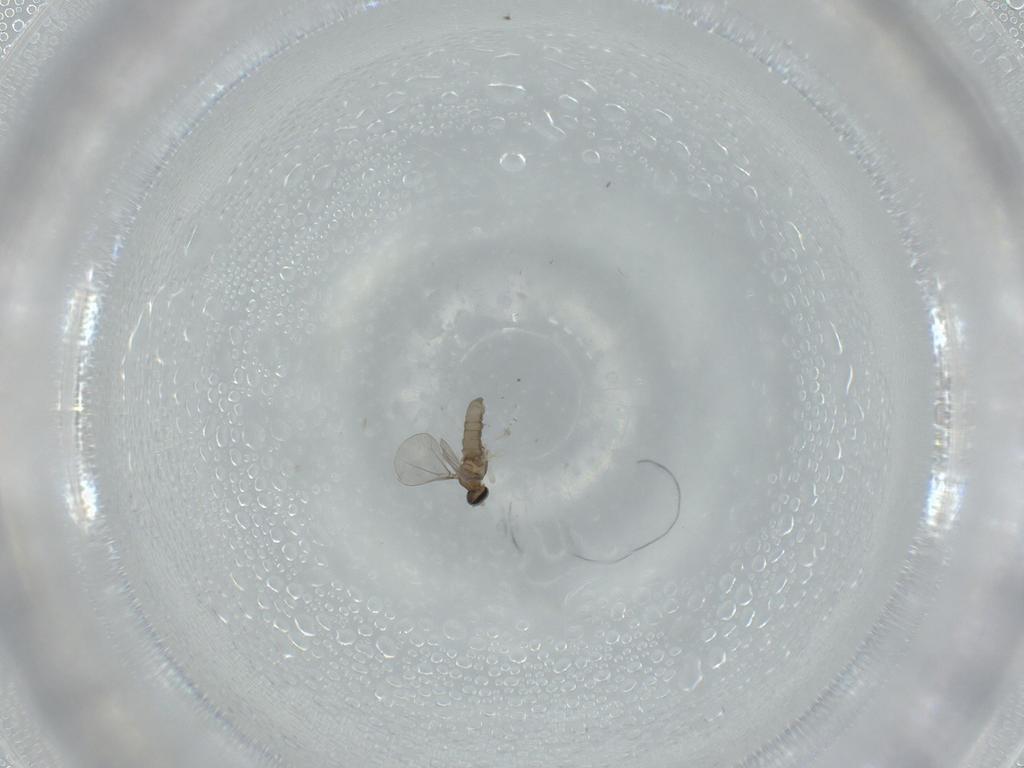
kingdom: Animalia
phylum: Arthropoda
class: Insecta
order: Diptera
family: Cecidomyiidae
